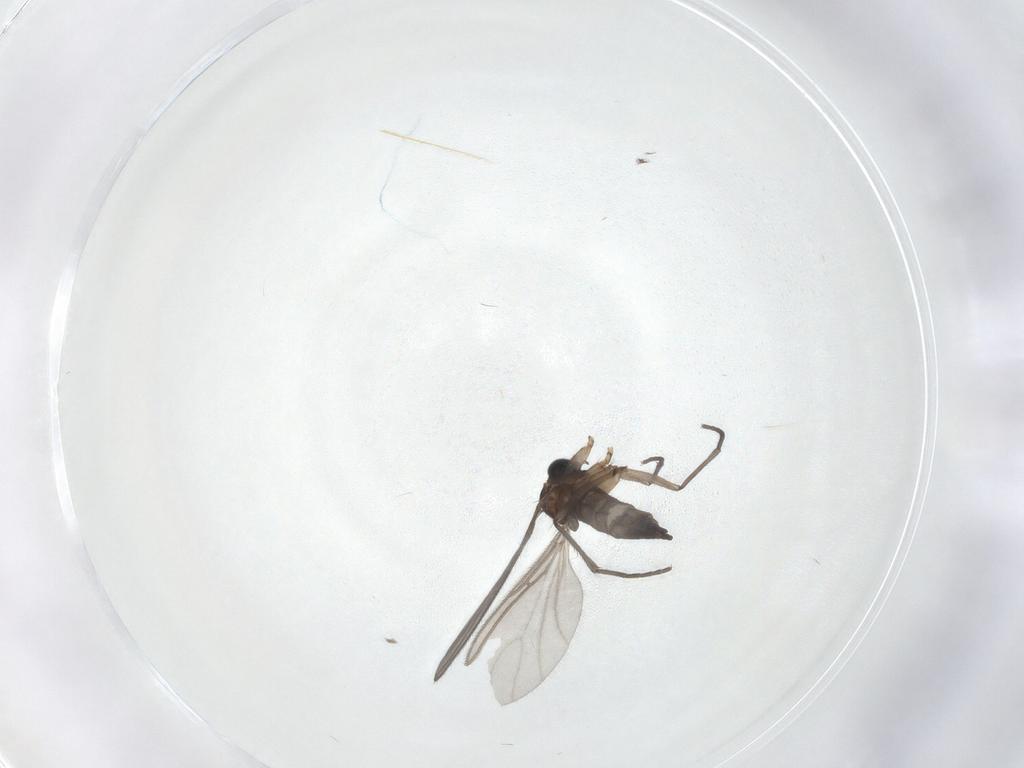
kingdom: Animalia
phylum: Arthropoda
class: Insecta
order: Diptera
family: Sciaridae
